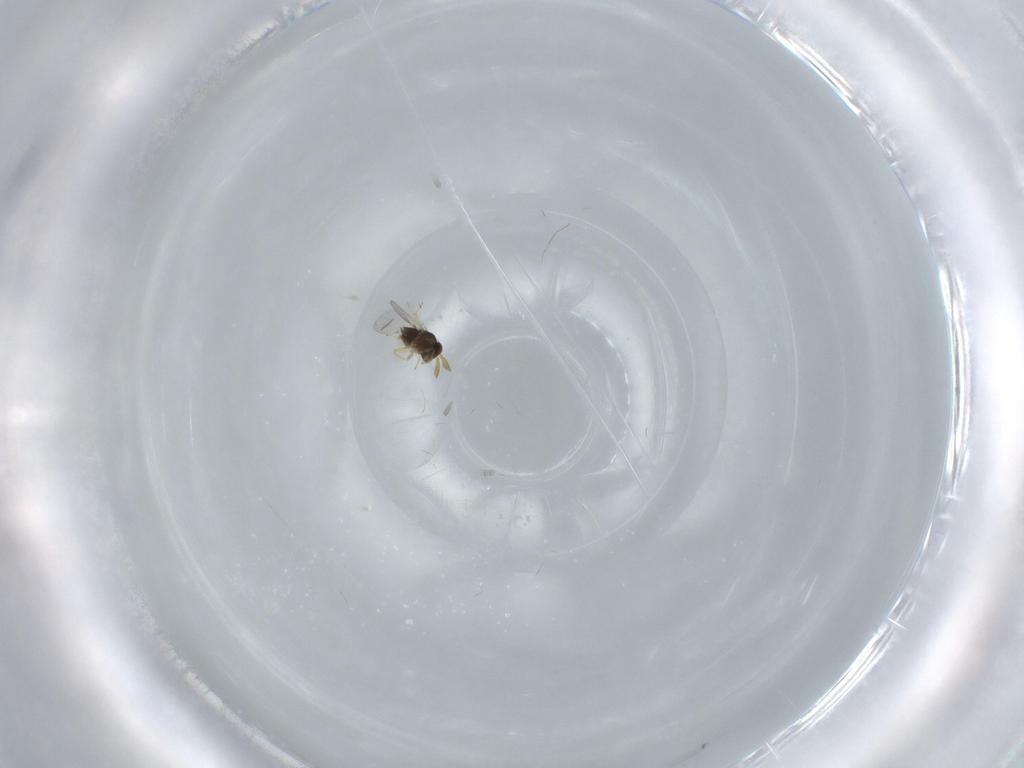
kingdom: Animalia
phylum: Arthropoda
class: Insecta
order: Hymenoptera
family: Encyrtidae
